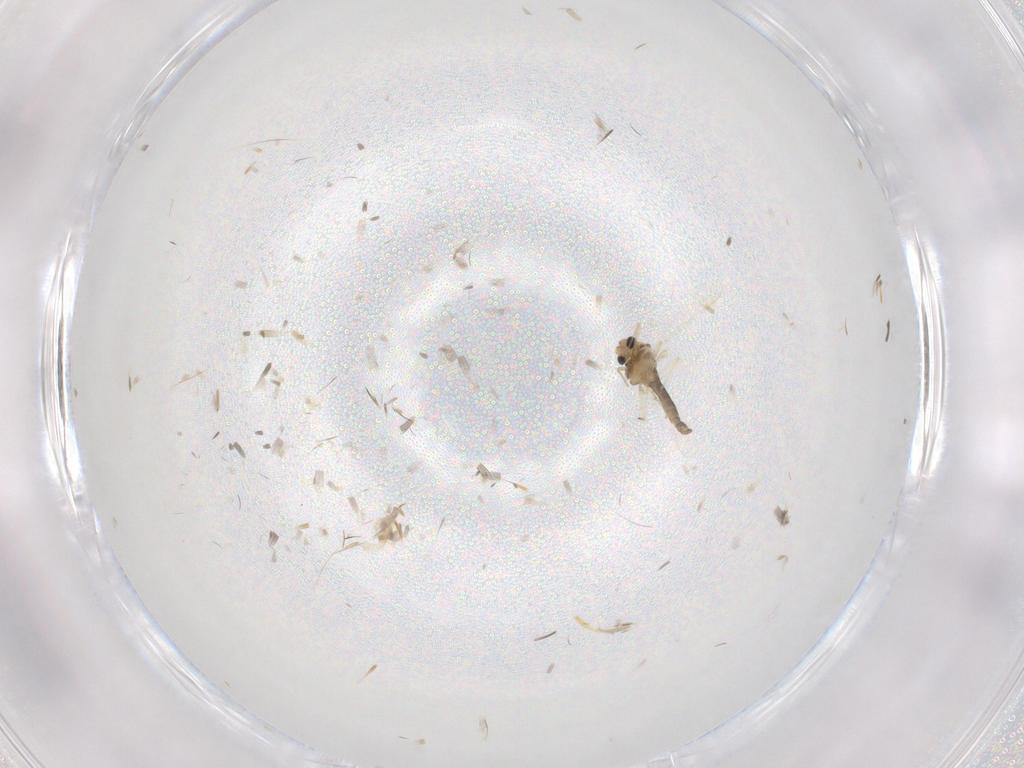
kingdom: Animalia
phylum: Arthropoda
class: Insecta
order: Diptera
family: Chironomidae
